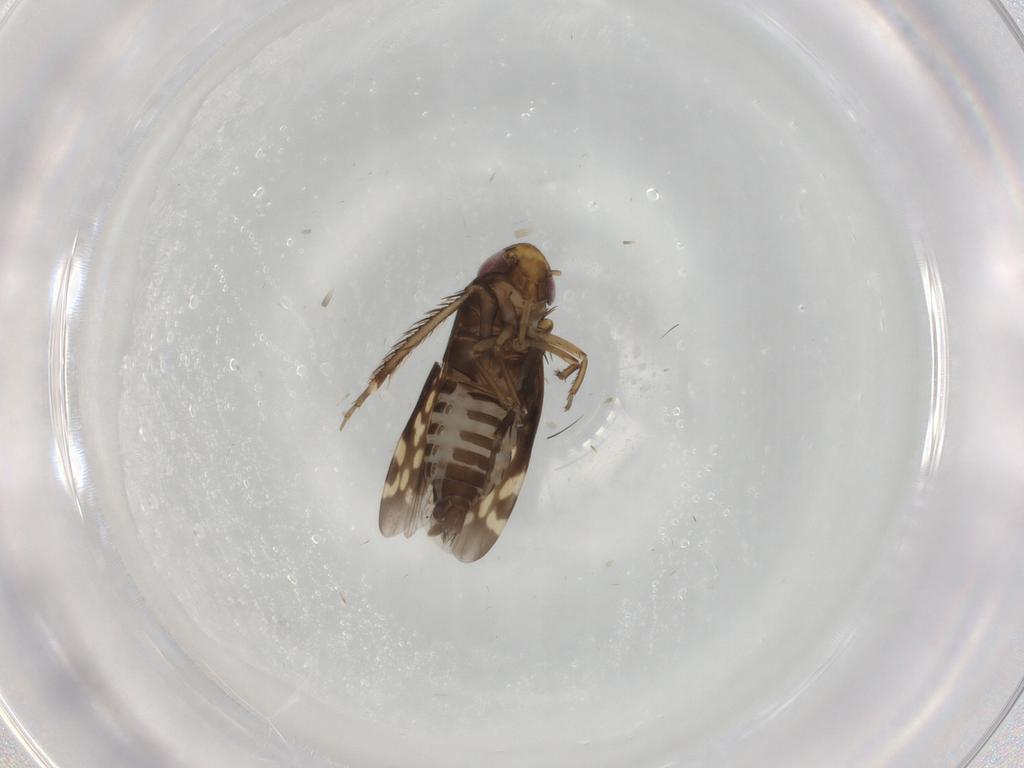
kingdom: Animalia
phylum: Arthropoda
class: Insecta
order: Hemiptera
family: Cicadellidae
